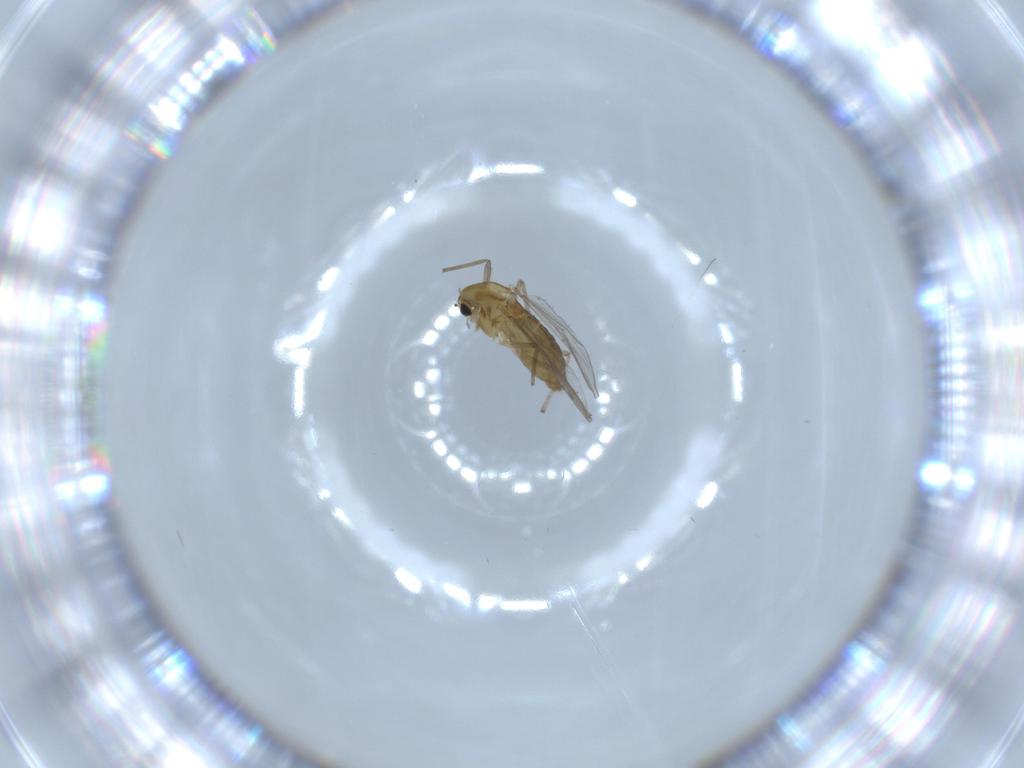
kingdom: Animalia
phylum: Arthropoda
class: Insecta
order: Diptera
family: Chironomidae
